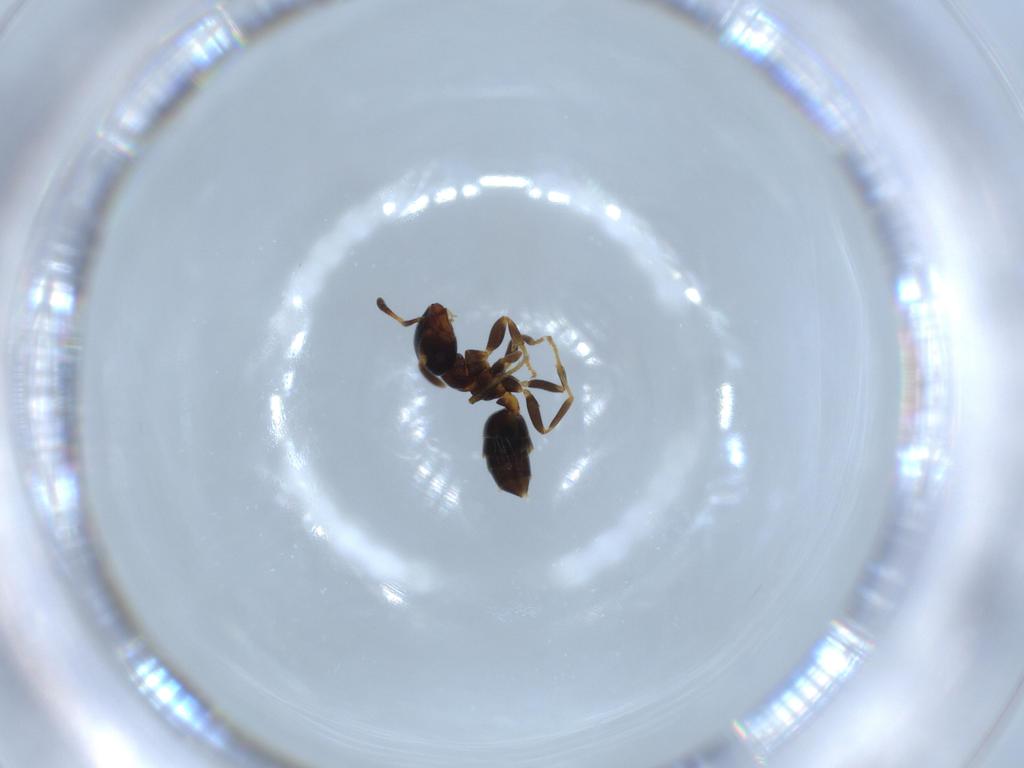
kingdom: Animalia
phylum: Arthropoda
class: Insecta
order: Hymenoptera
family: Formicidae
